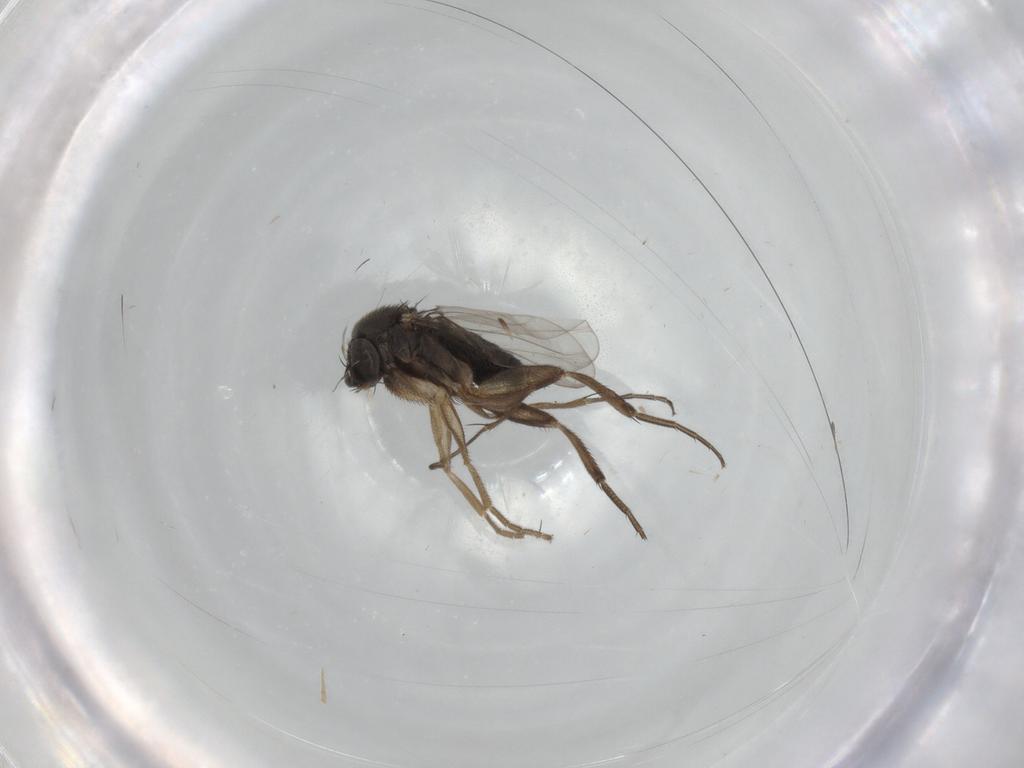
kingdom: Animalia
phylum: Arthropoda
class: Insecta
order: Diptera
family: Phoridae
